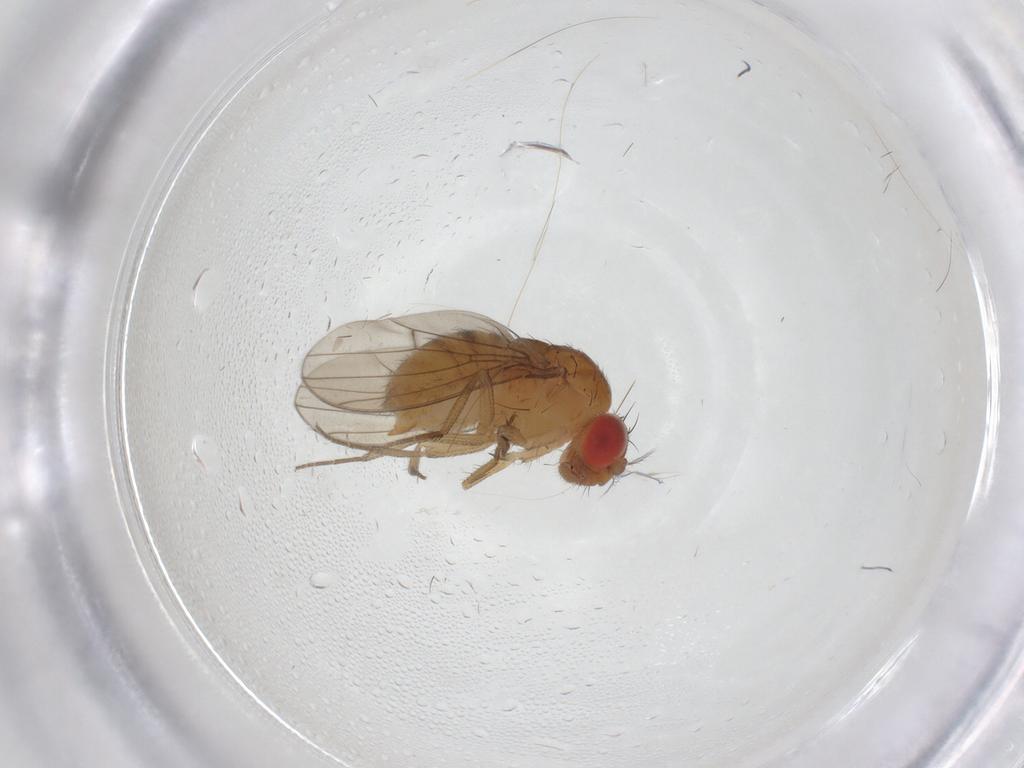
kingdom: Animalia
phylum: Arthropoda
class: Insecta
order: Diptera
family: Drosophilidae
